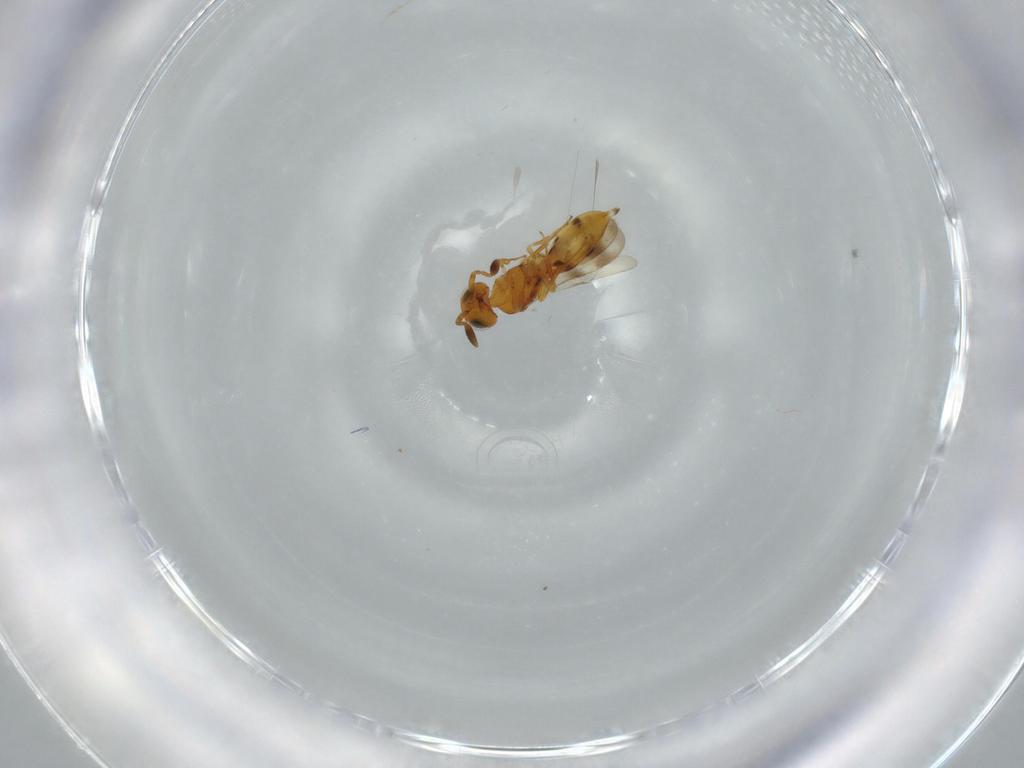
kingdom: Animalia
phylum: Arthropoda
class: Insecta
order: Hymenoptera
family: Scelionidae
